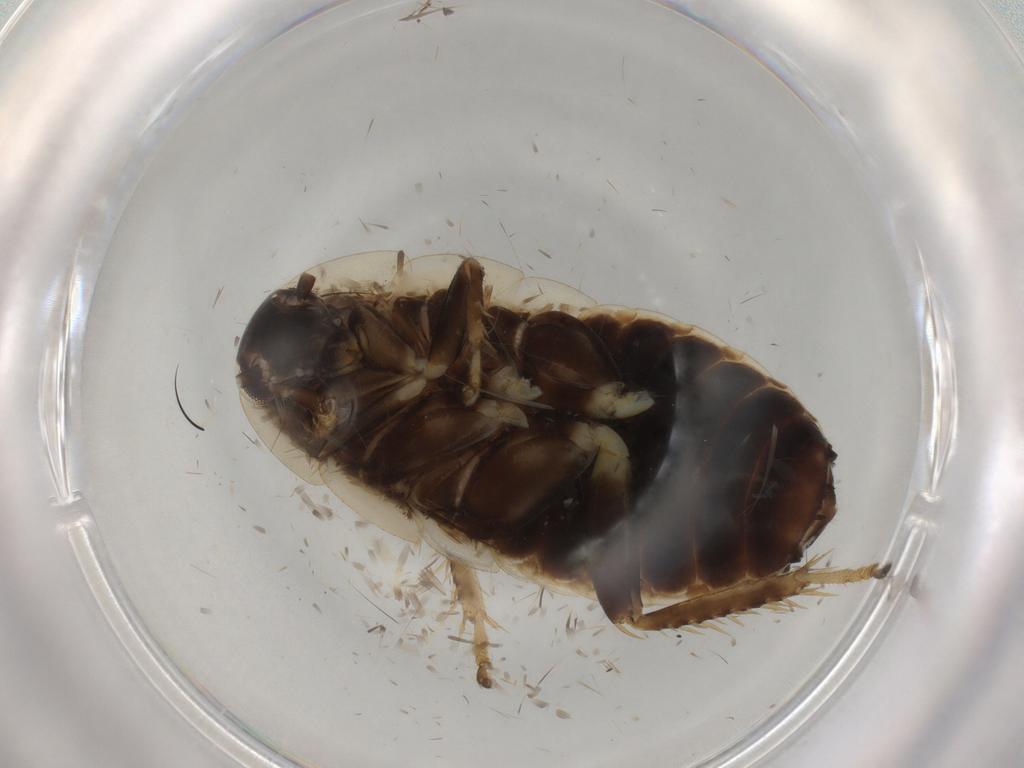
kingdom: Animalia
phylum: Arthropoda
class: Insecta
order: Blattodea
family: Ectobiidae
